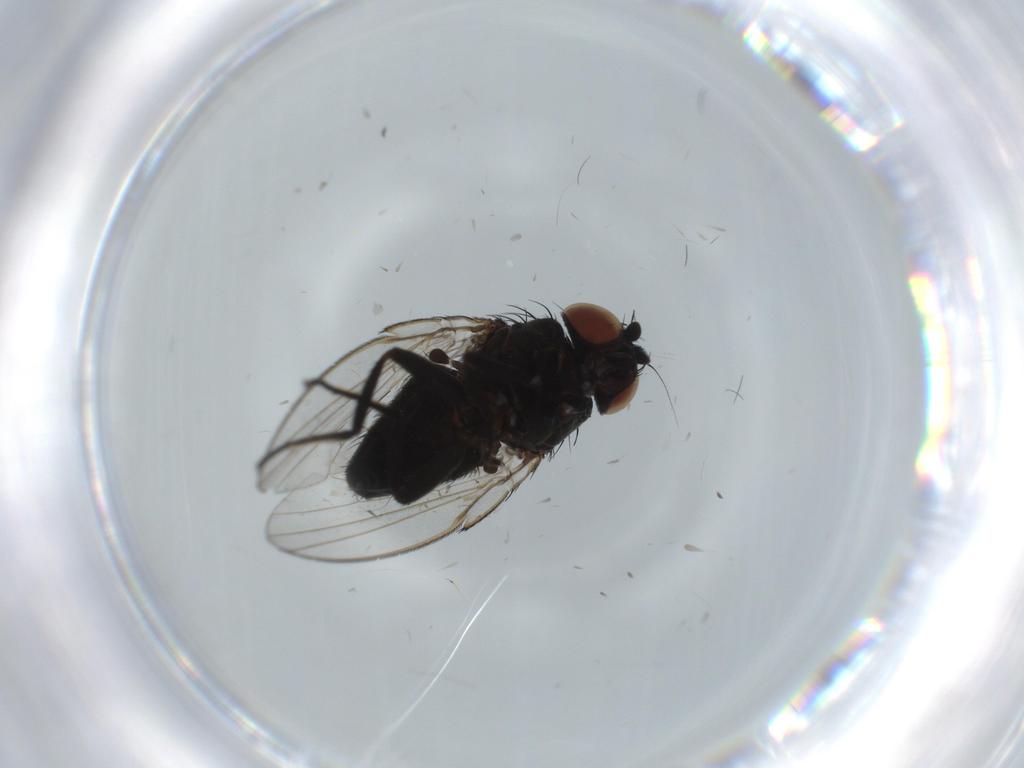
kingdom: Animalia
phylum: Arthropoda
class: Insecta
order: Diptera
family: Milichiidae
